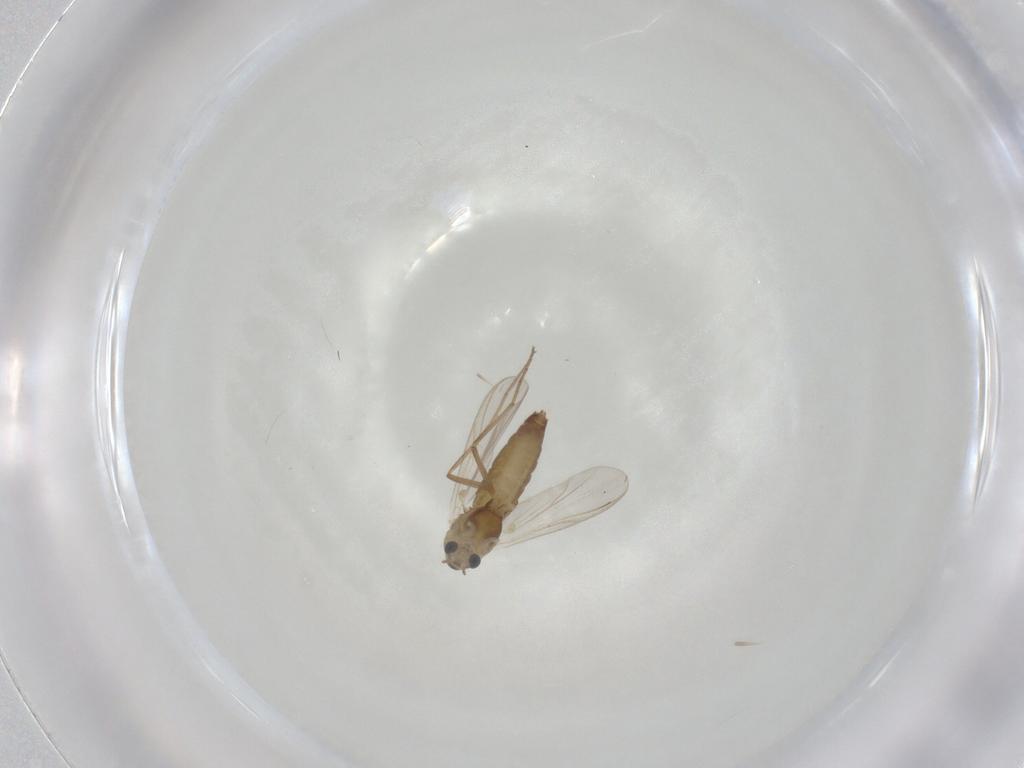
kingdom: Animalia
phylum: Arthropoda
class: Insecta
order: Diptera
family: Chironomidae
